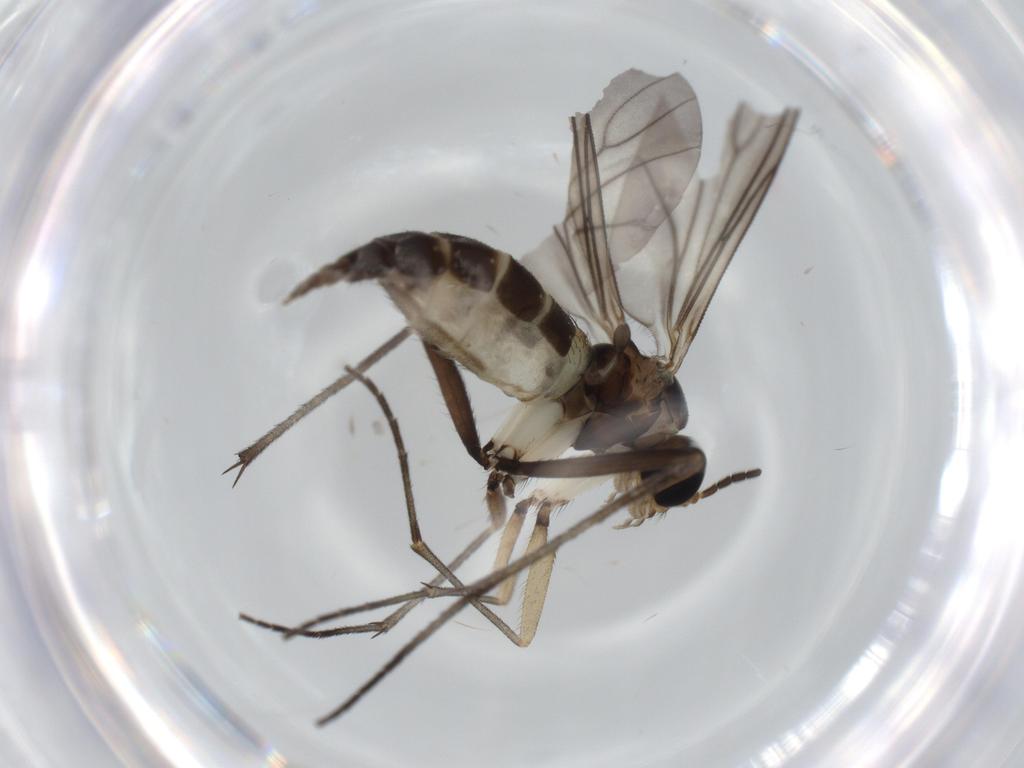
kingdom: Animalia
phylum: Arthropoda
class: Insecta
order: Diptera
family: Sciaridae
